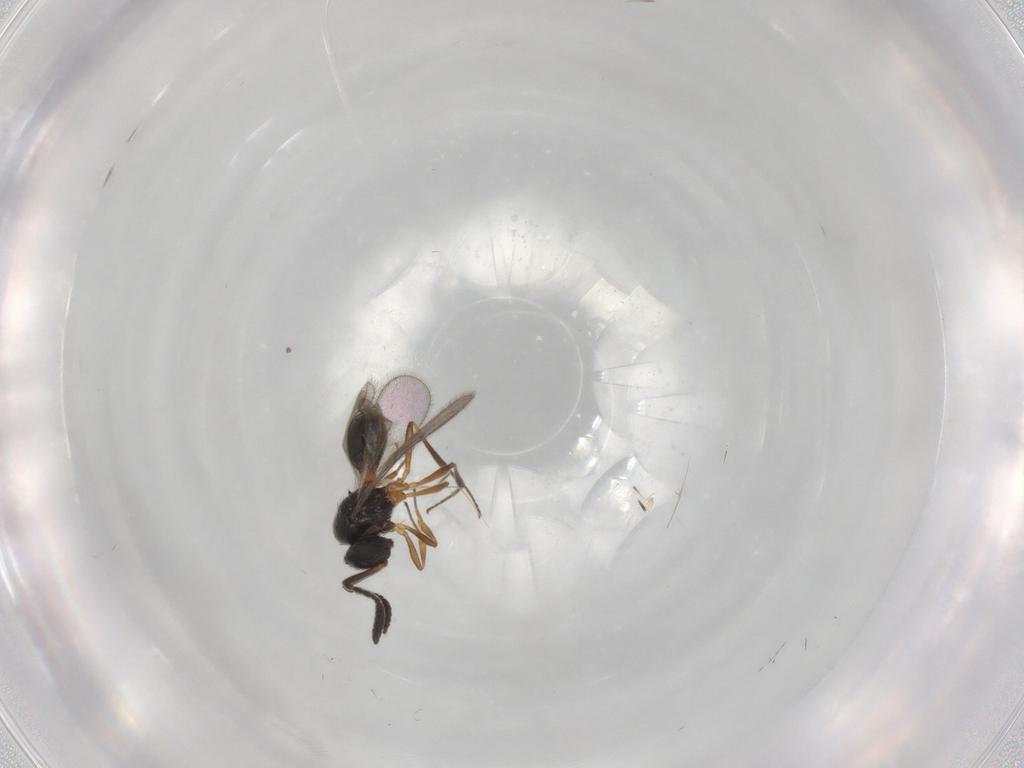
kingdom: Animalia
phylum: Arthropoda
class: Insecta
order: Hymenoptera
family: Scelionidae
